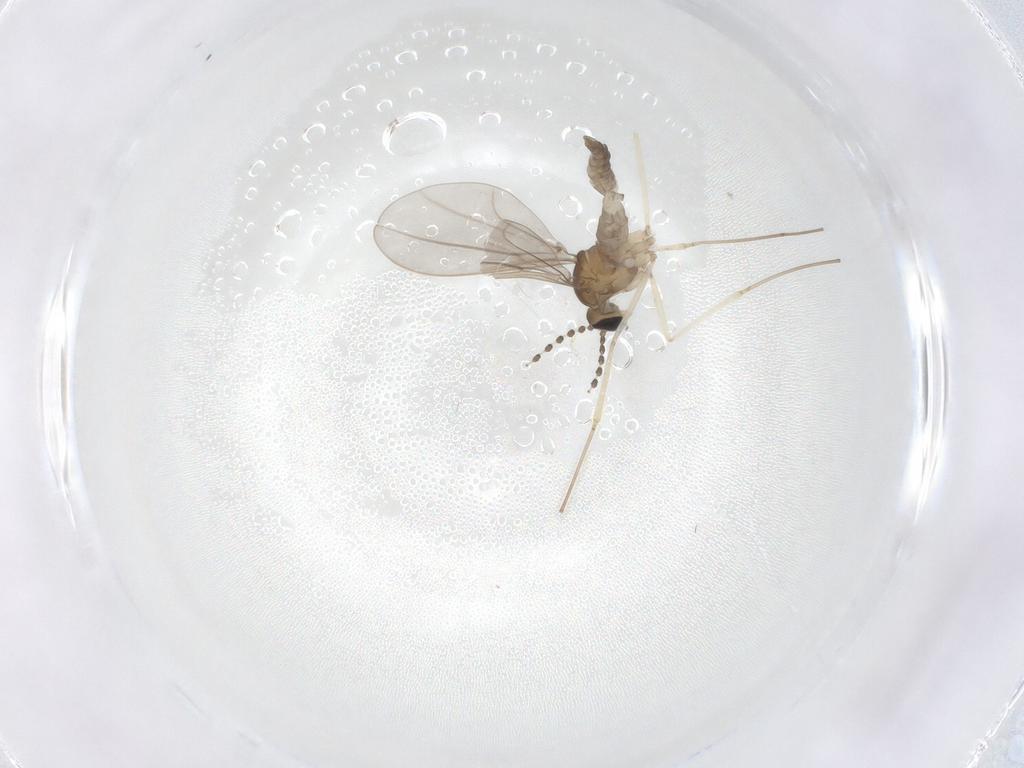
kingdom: Animalia
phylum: Arthropoda
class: Insecta
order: Diptera
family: Cecidomyiidae
